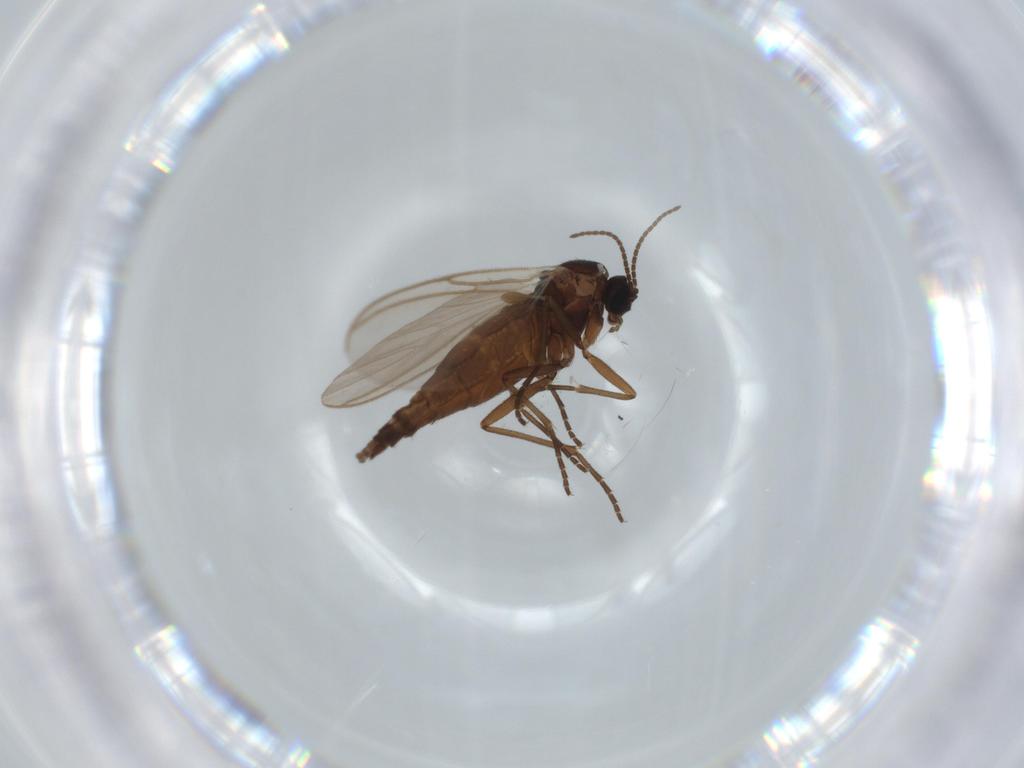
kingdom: Animalia
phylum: Arthropoda
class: Insecta
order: Diptera
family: Sciaridae
